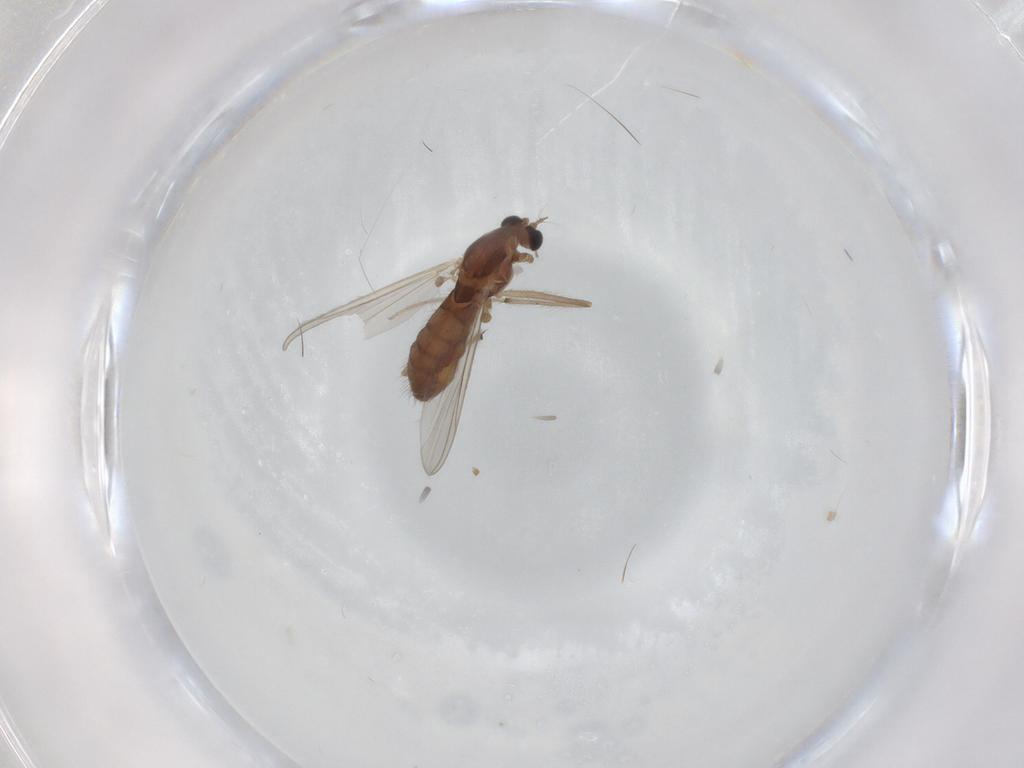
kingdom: Animalia
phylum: Arthropoda
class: Insecta
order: Diptera
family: Chironomidae
